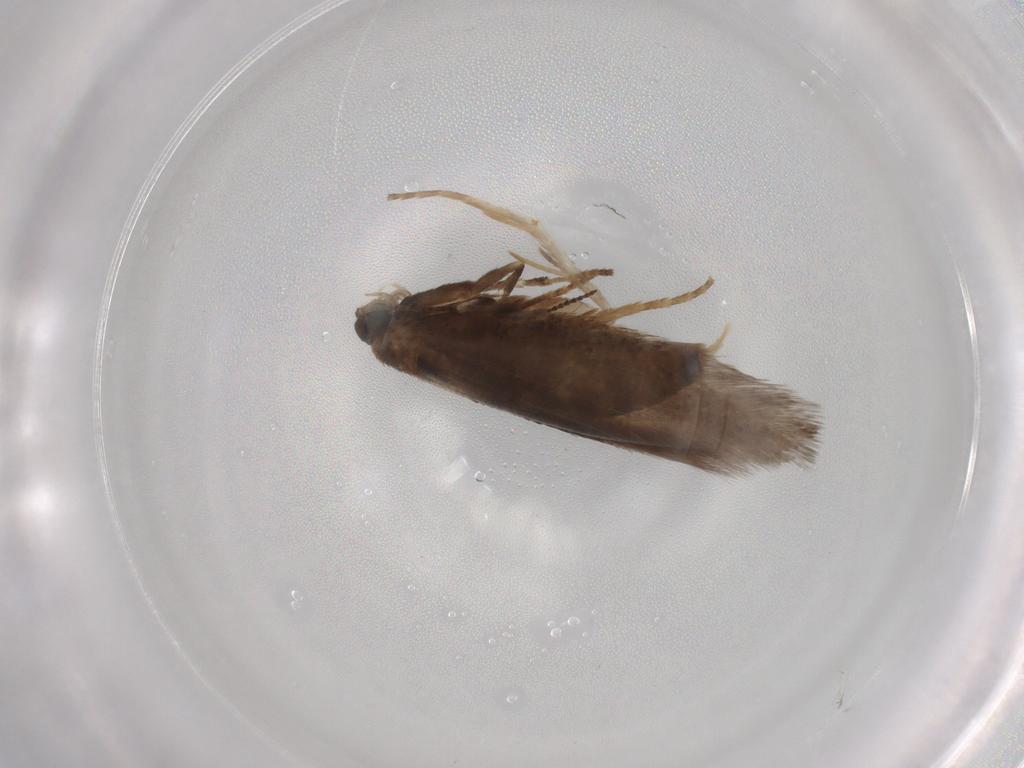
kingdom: Animalia
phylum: Arthropoda
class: Insecta
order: Lepidoptera
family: Nepticulidae
